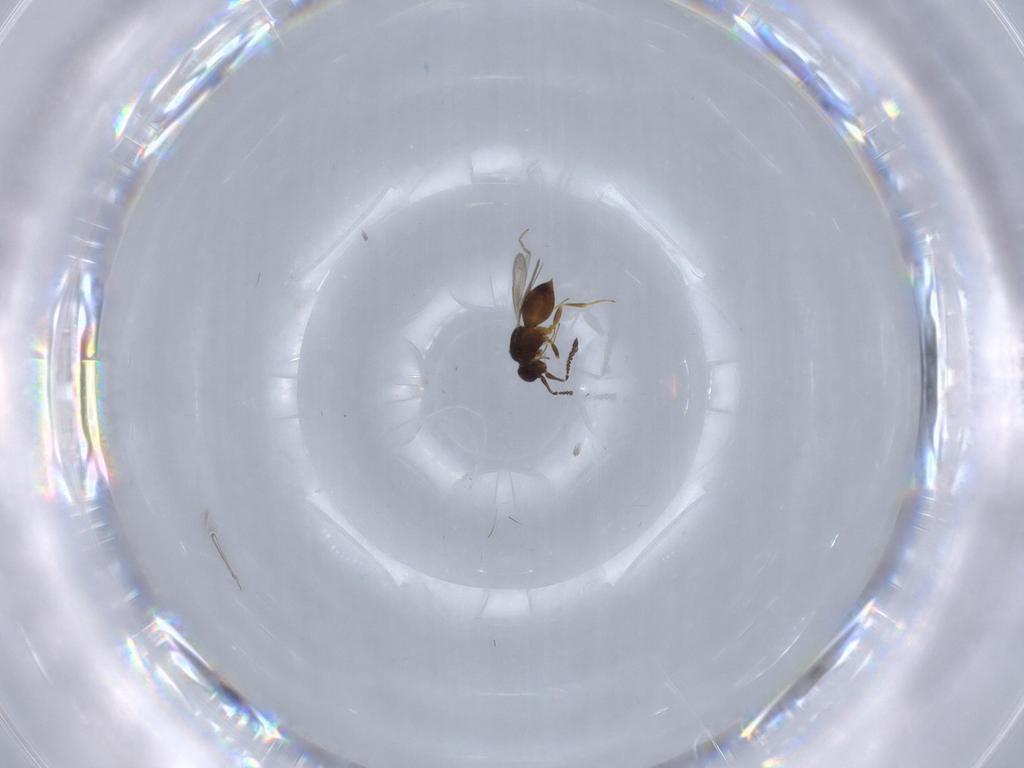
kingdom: Animalia
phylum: Arthropoda
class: Insecta
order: Hymenoptera
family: Ceraphronidae
